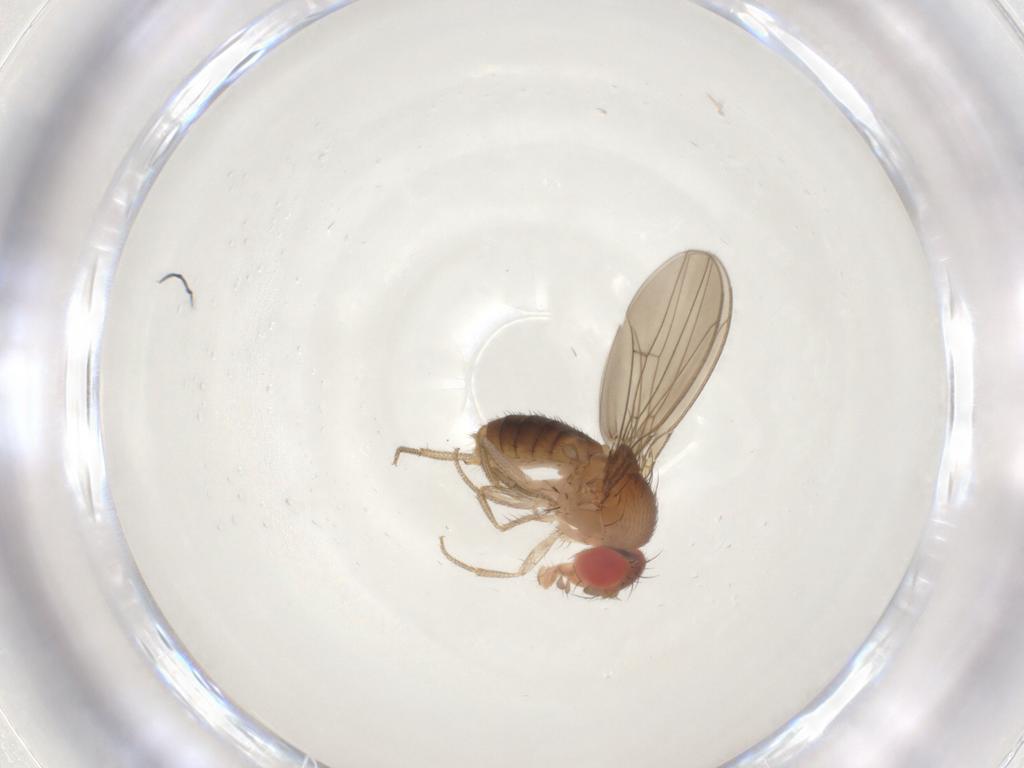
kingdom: Animalia
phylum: Arthropoda
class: Insecta
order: Diptera
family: Drosophilidae
